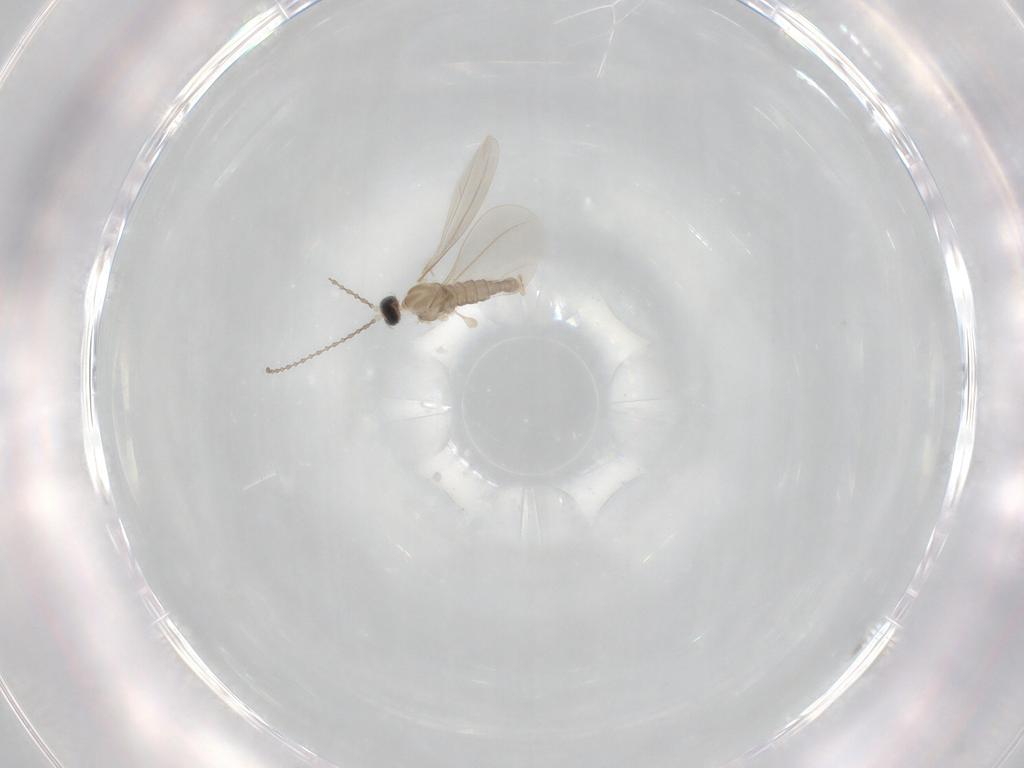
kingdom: Animalia
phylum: Arthropoda
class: Insecta
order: Diptera
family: Cecidomyiidae
